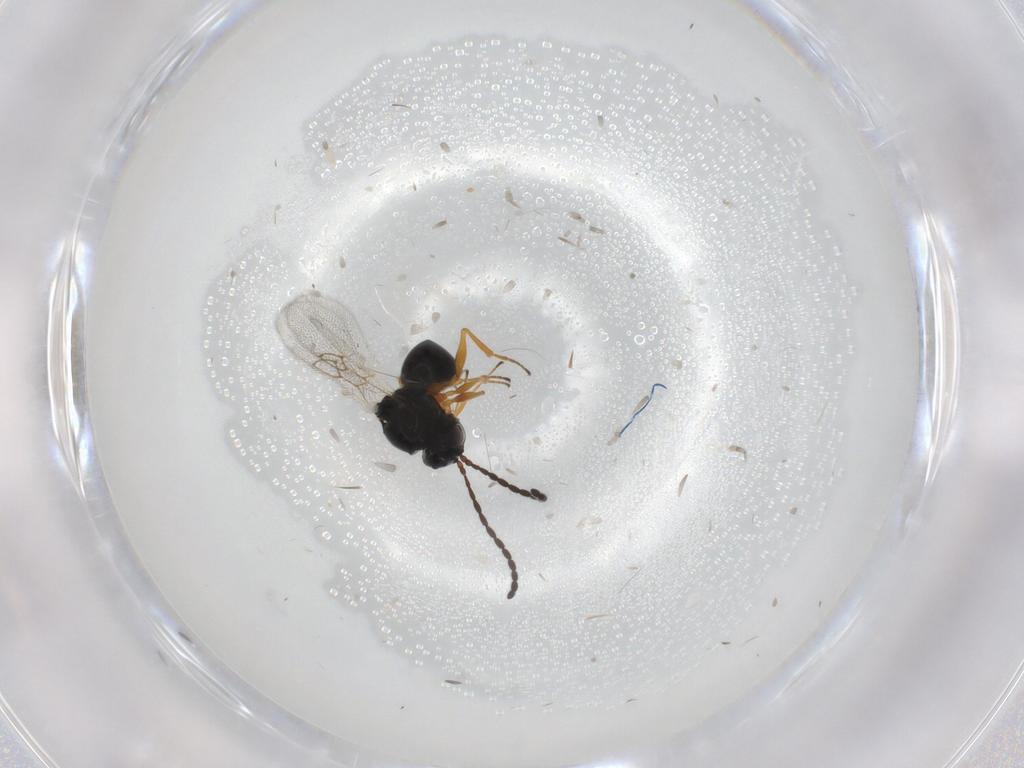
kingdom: Animalia
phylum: Arthropoda
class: Insecta
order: Hymenoptera
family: Figitidae
